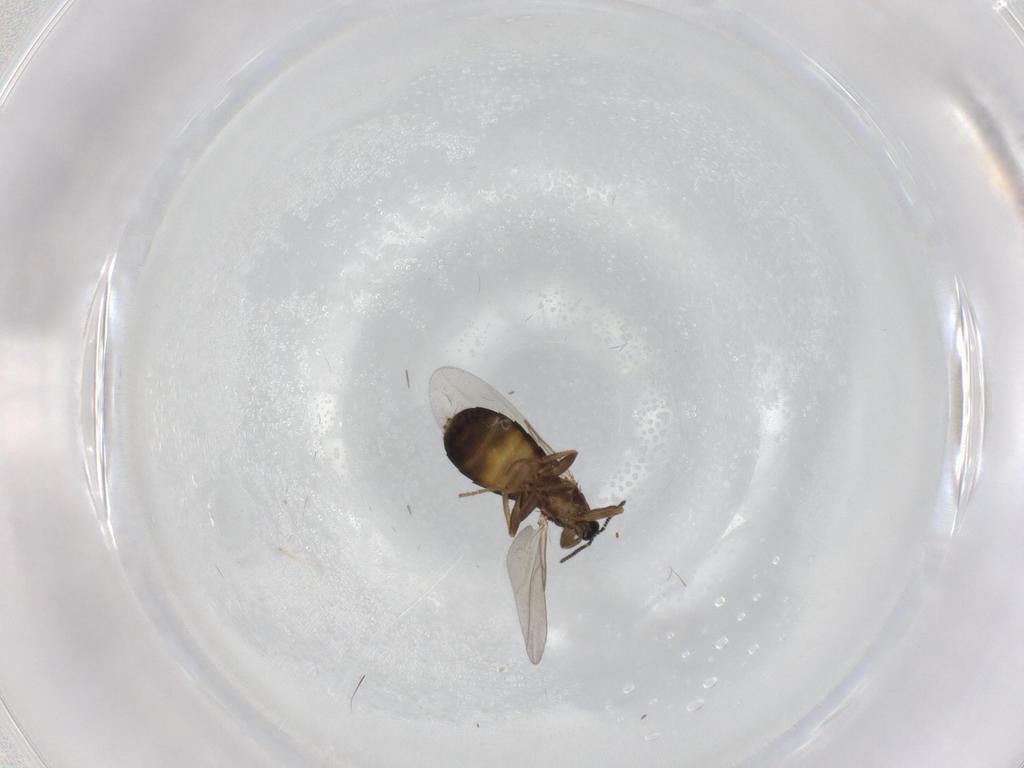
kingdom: Animalia
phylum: Arthropoda
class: Insecta
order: Diptera
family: Scatopsidae
